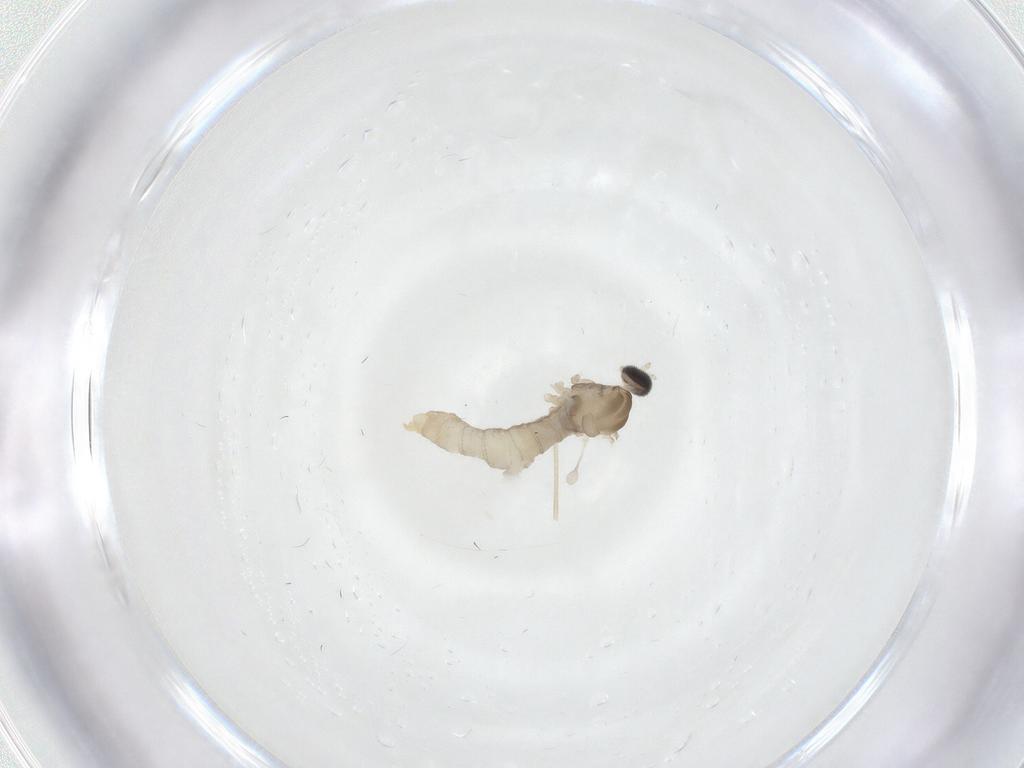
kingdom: Animalia
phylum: Arthropoda
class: Insecta
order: Diptera
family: Cecidomyiidae
